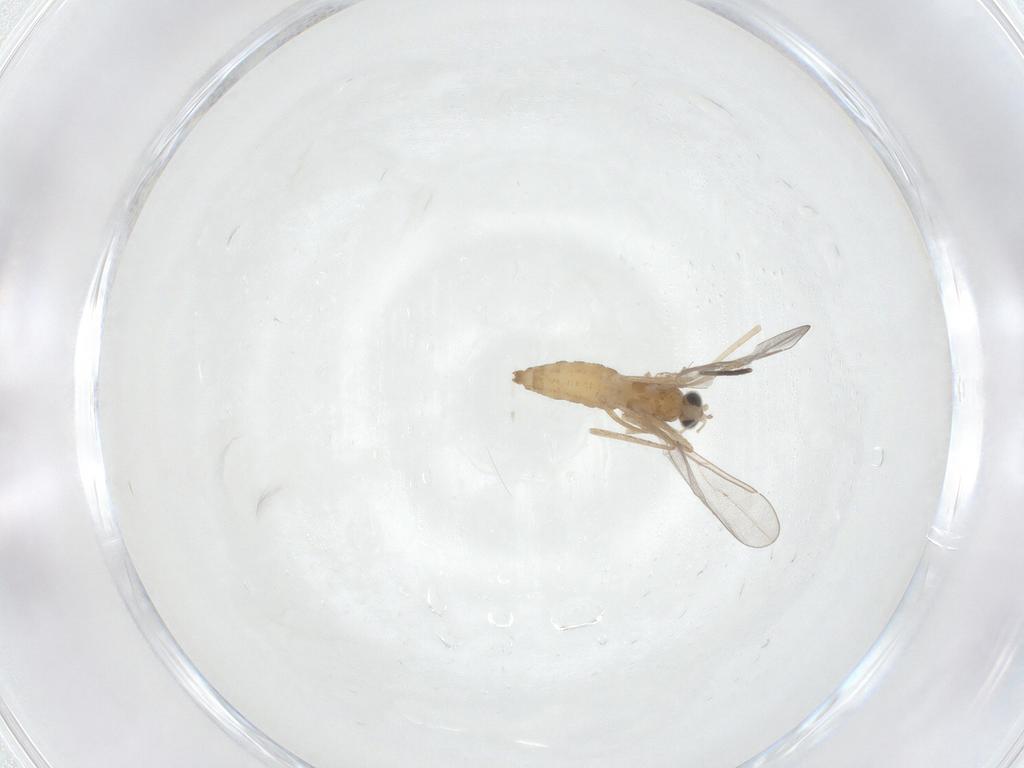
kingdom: Animalia
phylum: Arthropoda
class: Insecta
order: Diptera
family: Cecidomyiidae
